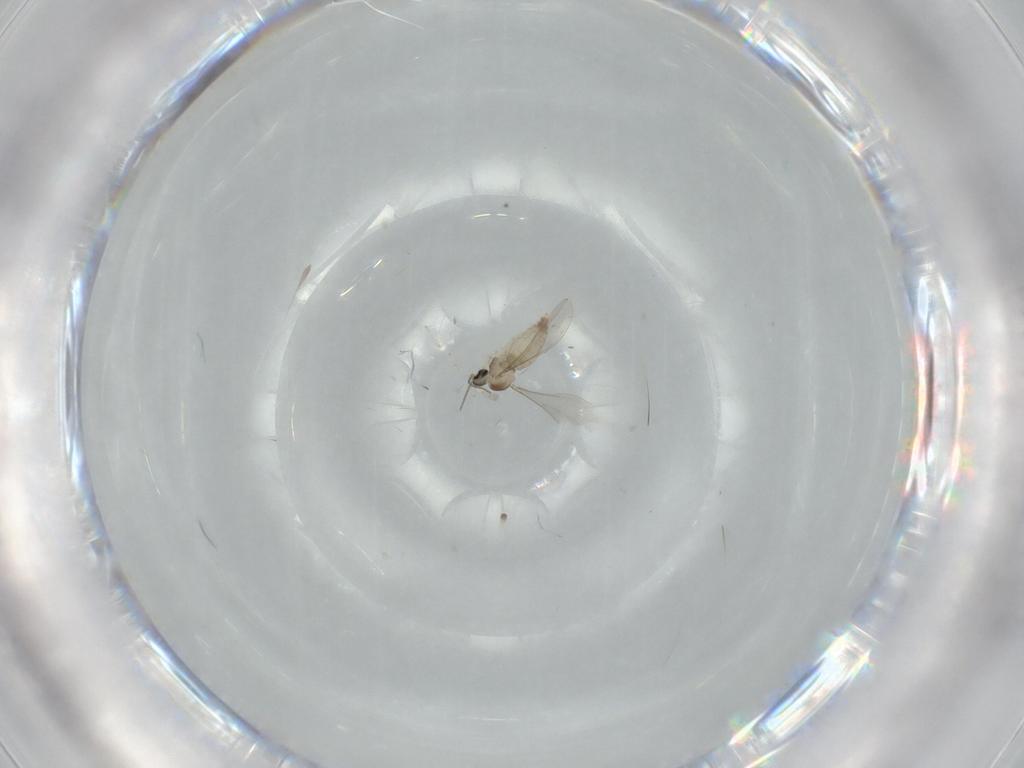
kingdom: Animalia
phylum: Arthropoda
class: Insecta
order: Diptera
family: Cecidomyiidae
